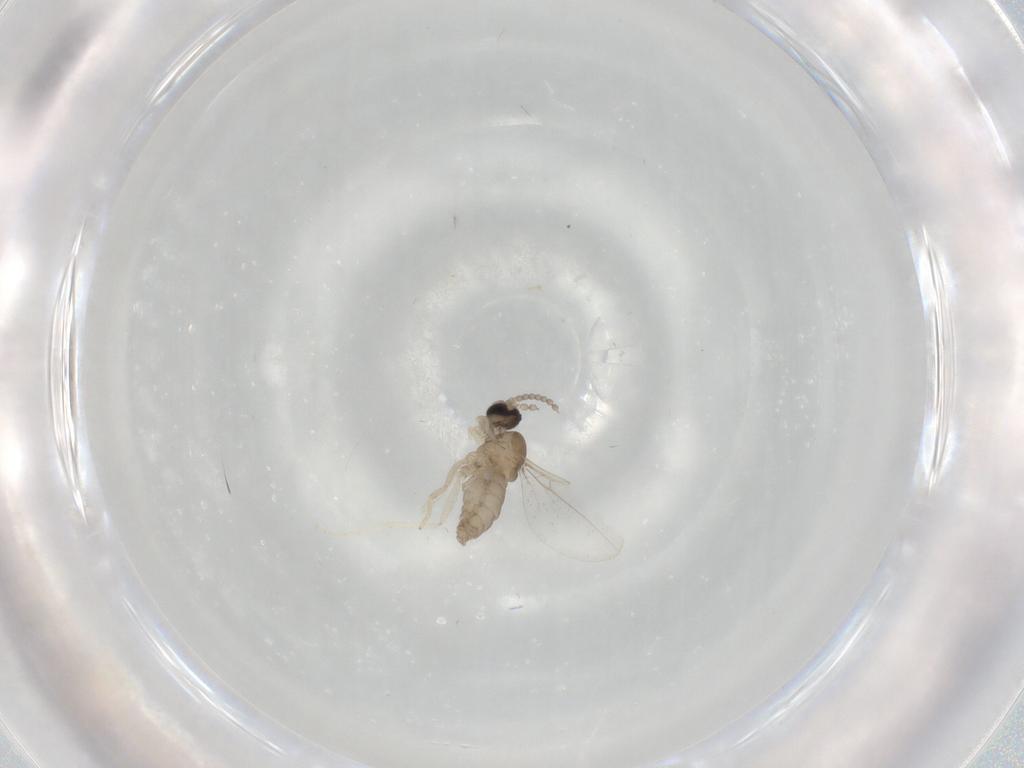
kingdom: Animalia
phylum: Arthropoda
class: Insecta
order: Diptera
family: Cecidomyiidae
